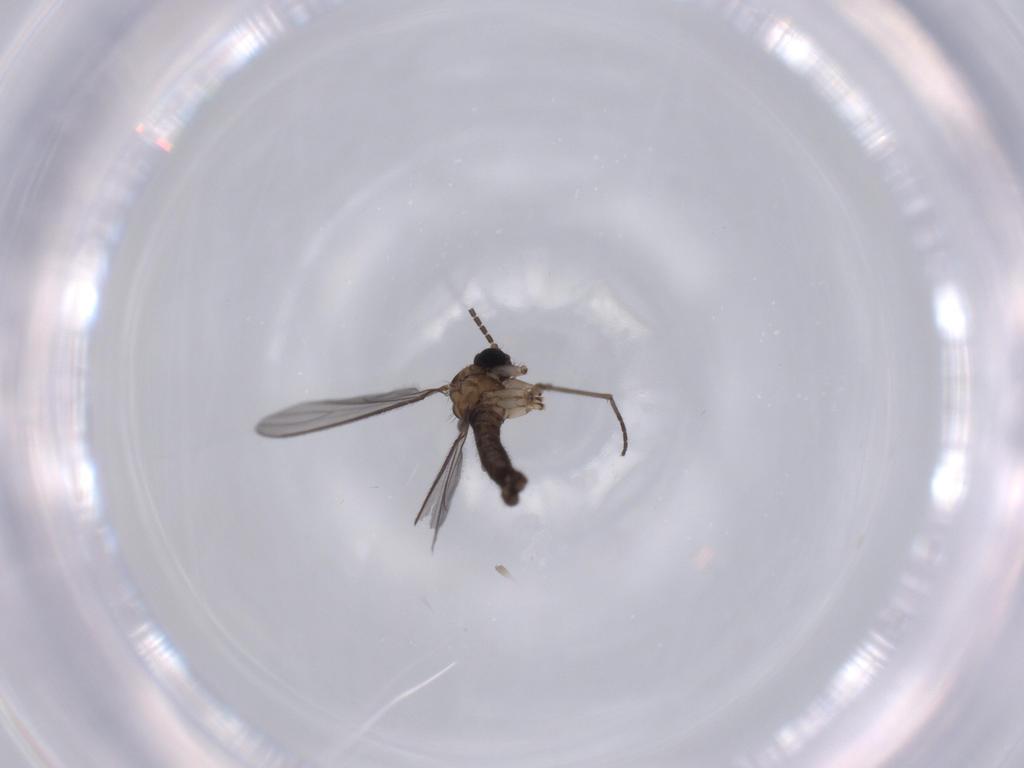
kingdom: Animalia
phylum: Arthropoda
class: Insecta
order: Diptera
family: Sciaridae
